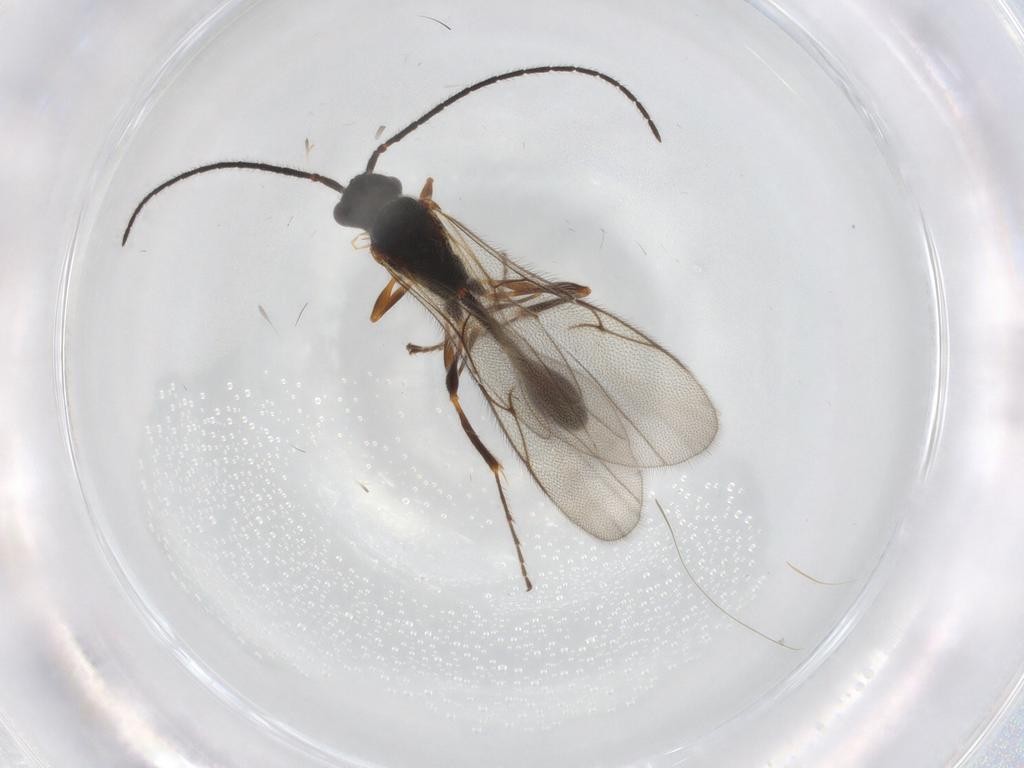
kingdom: Animalia
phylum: Arthropoda
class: Insecta
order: Hymenoptera
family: Diapriidae
